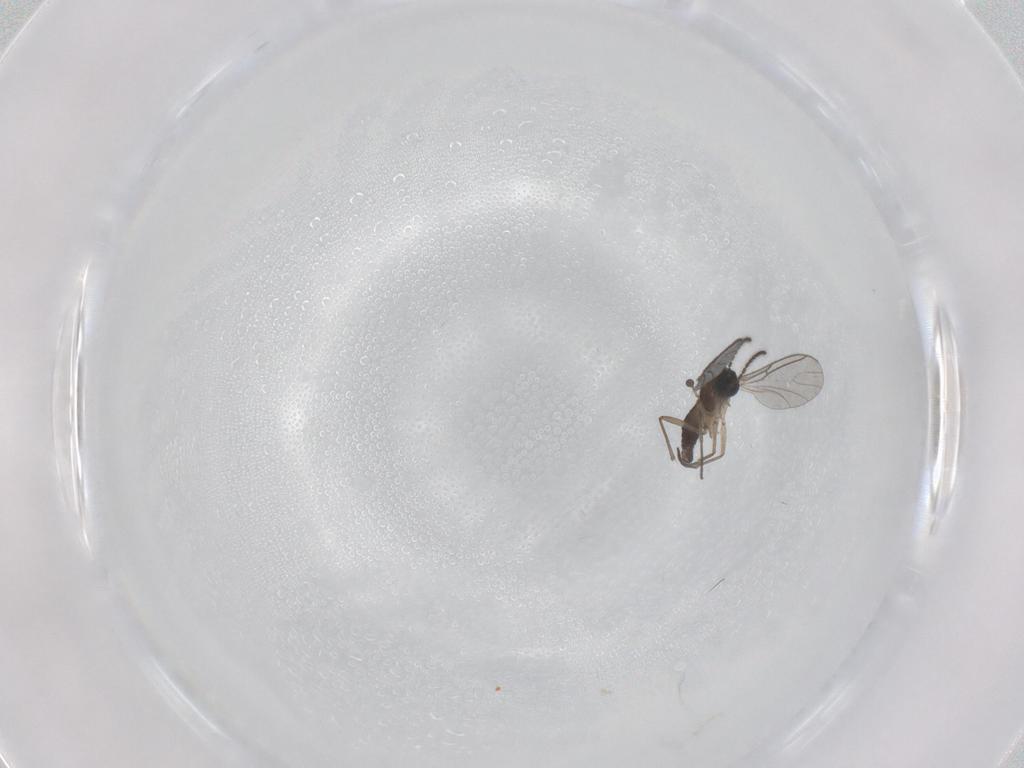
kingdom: Animalia
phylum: Arthropoda
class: Insecta
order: Diptera
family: Sciaridae
